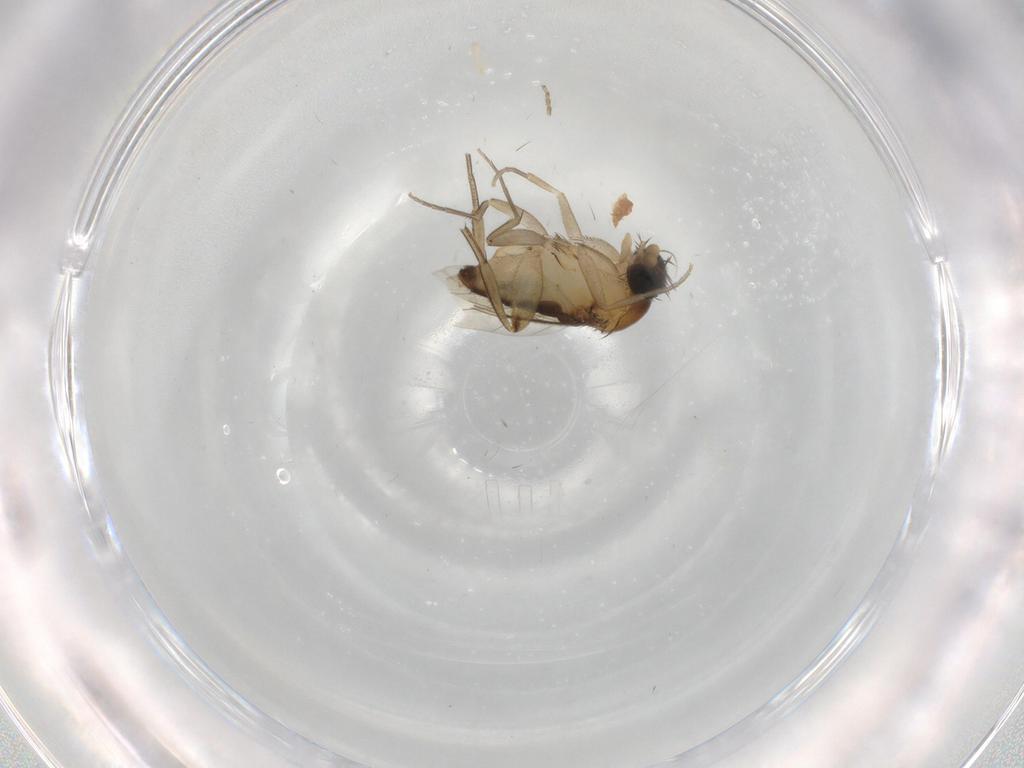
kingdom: Animalia
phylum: Arthropoda
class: Insecta
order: Diptera
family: Ceratopogonidae
